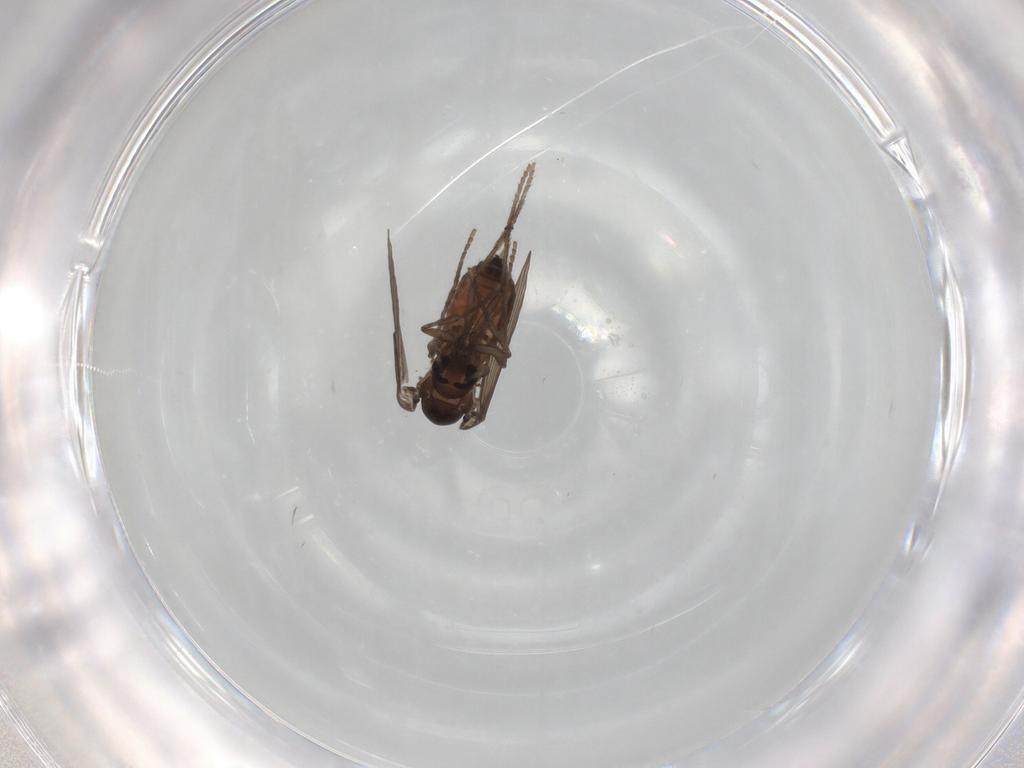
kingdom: Animalia
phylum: Arthropoda
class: Insecta
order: Diptera
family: Psychodidae
